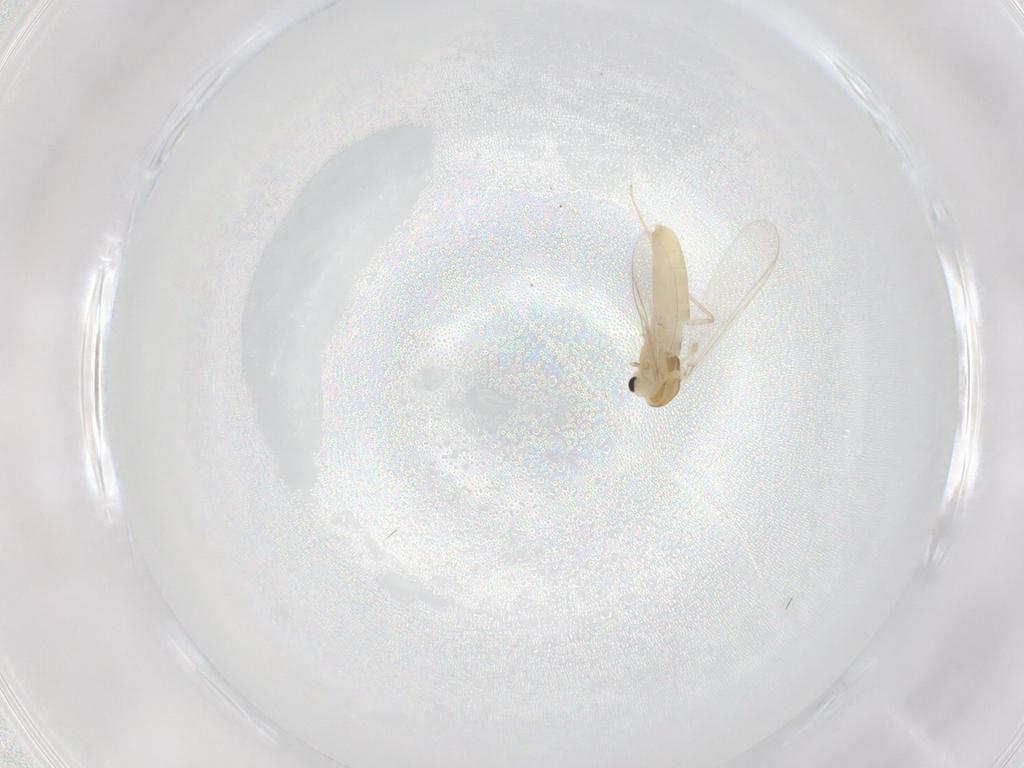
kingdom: Animalia
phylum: Arthropoda
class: Insecta
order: Diptera
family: Chironomidae
